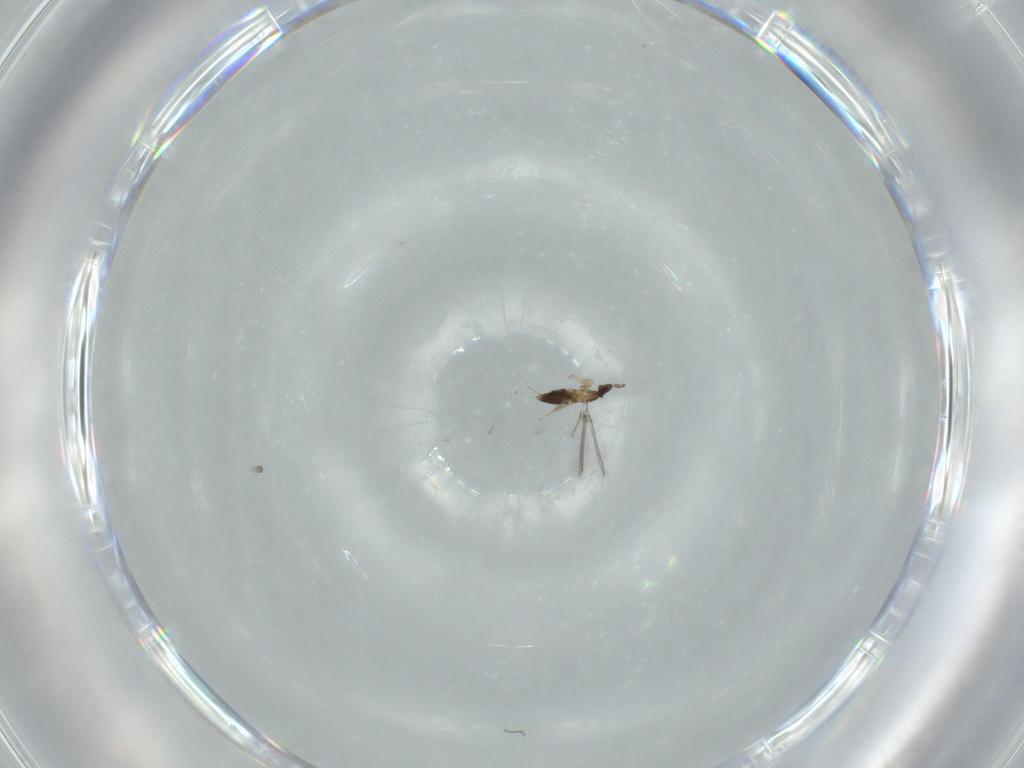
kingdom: Animalia
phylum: Arthropoda
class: Insecta
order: Hymenoptera
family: Mymaridae
